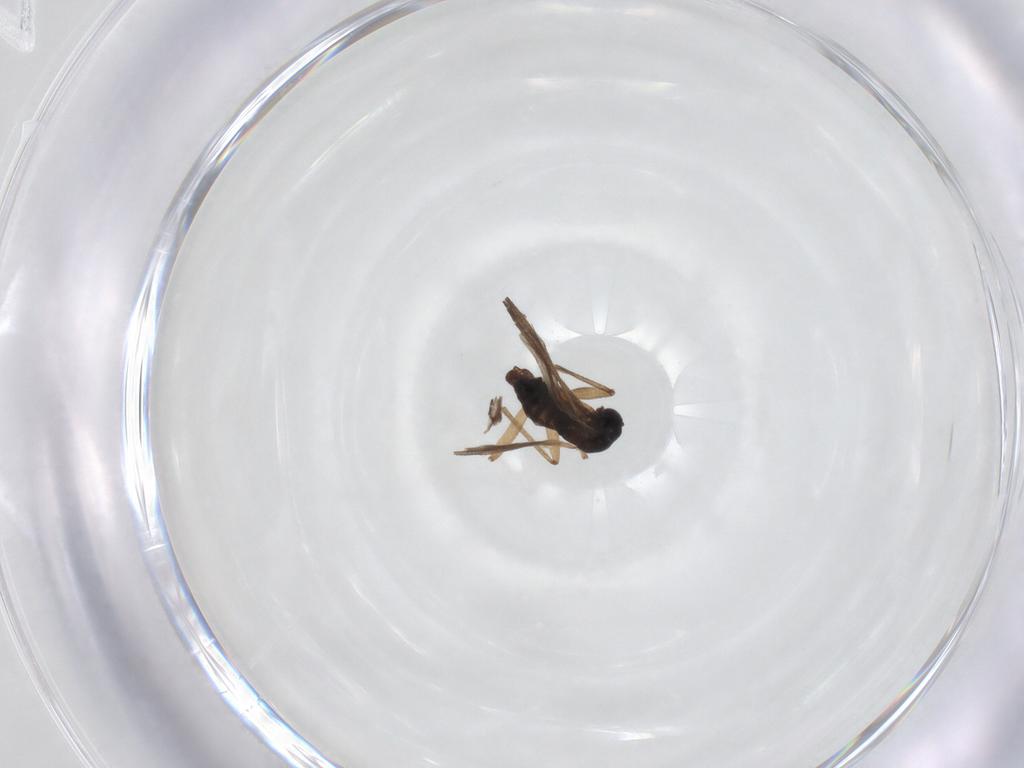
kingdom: Animalia
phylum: Arthropoda
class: Insecta
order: Diptera
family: Sciaridae
